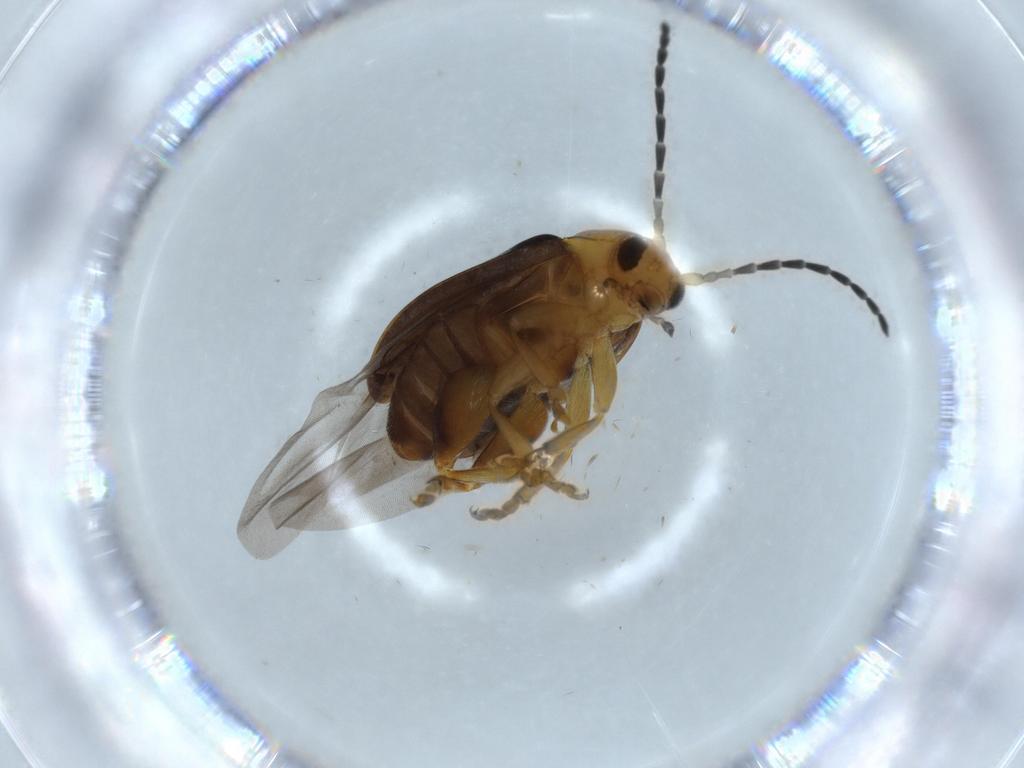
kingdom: Animalia
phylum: Arthropoda
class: Insecta
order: Coleoptera
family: Chrysomelidae
